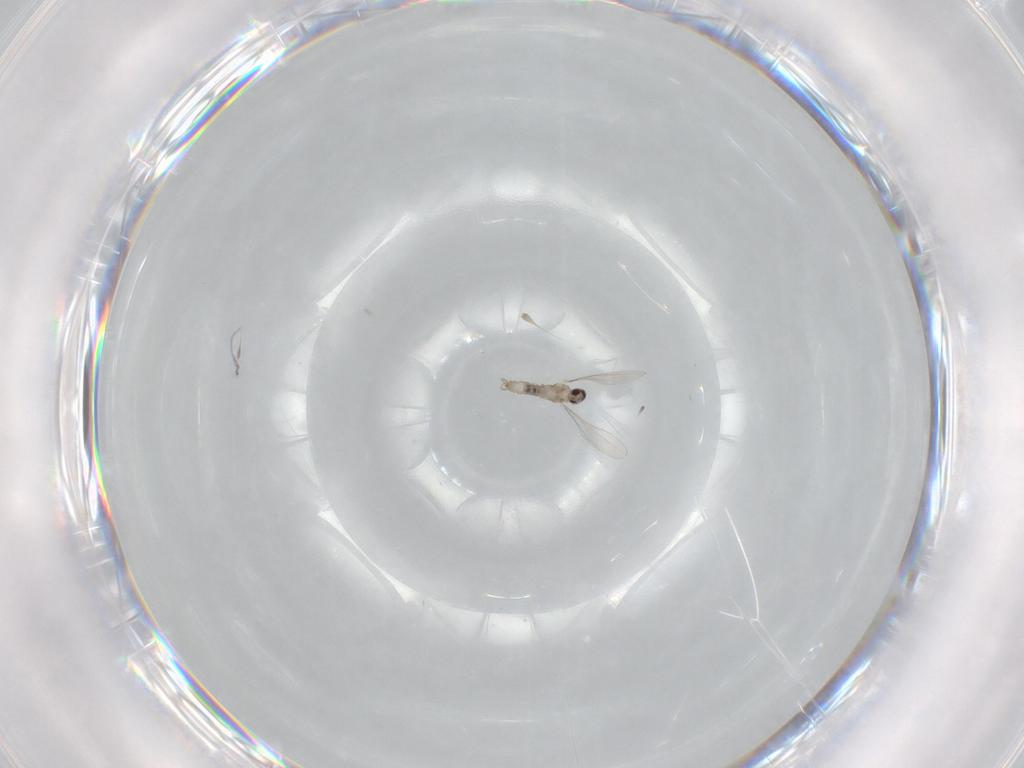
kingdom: Animalia
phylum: Arthropoda
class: Insecta
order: Diptera
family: Cecidomyiidae
